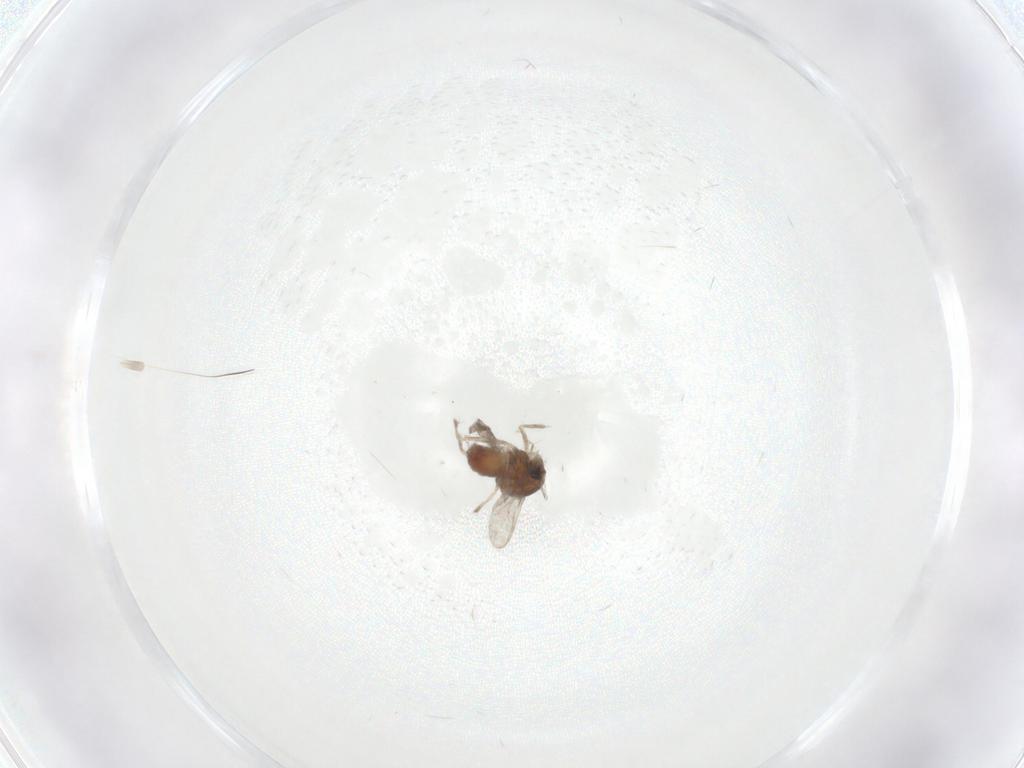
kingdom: Animalia
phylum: Arthropoda
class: Insecta
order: Diptera
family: Chironomidae
